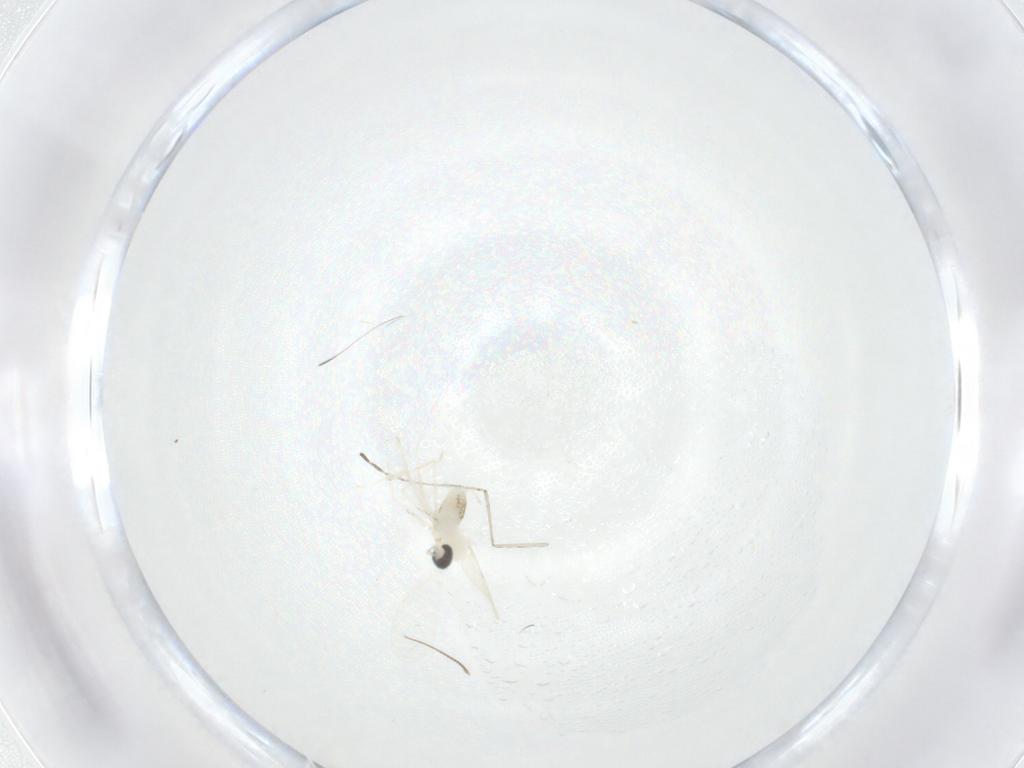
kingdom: Animalia
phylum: Arthropoda
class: Insecta
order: Diptera
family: Cecidomyiidae
